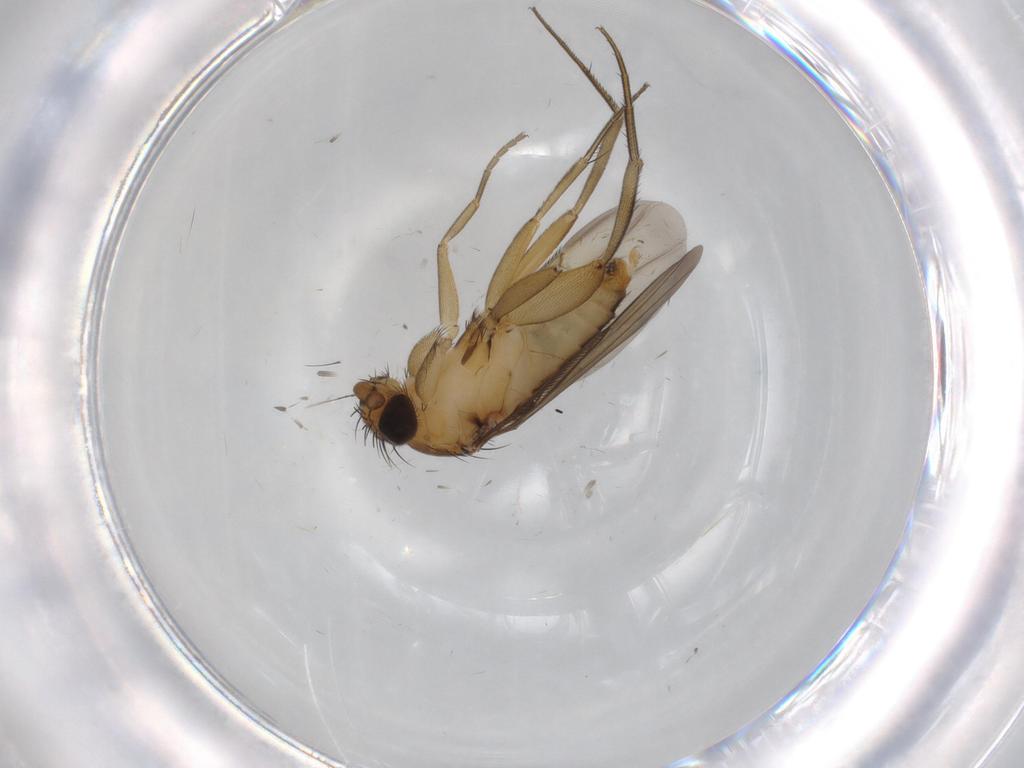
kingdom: Animalia
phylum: Arthropoda
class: Insecta
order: Diptera
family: Phoridae
